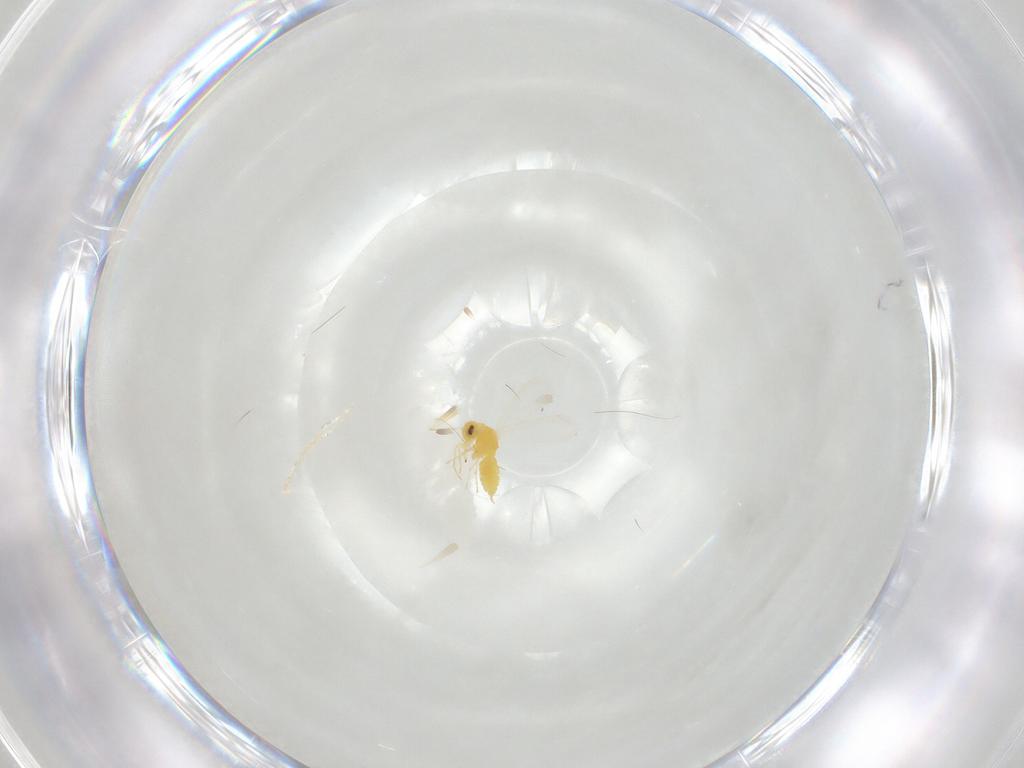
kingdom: Animalia
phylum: Arthropoda
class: Insecta
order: Hemiptera
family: Aleyrodidae
